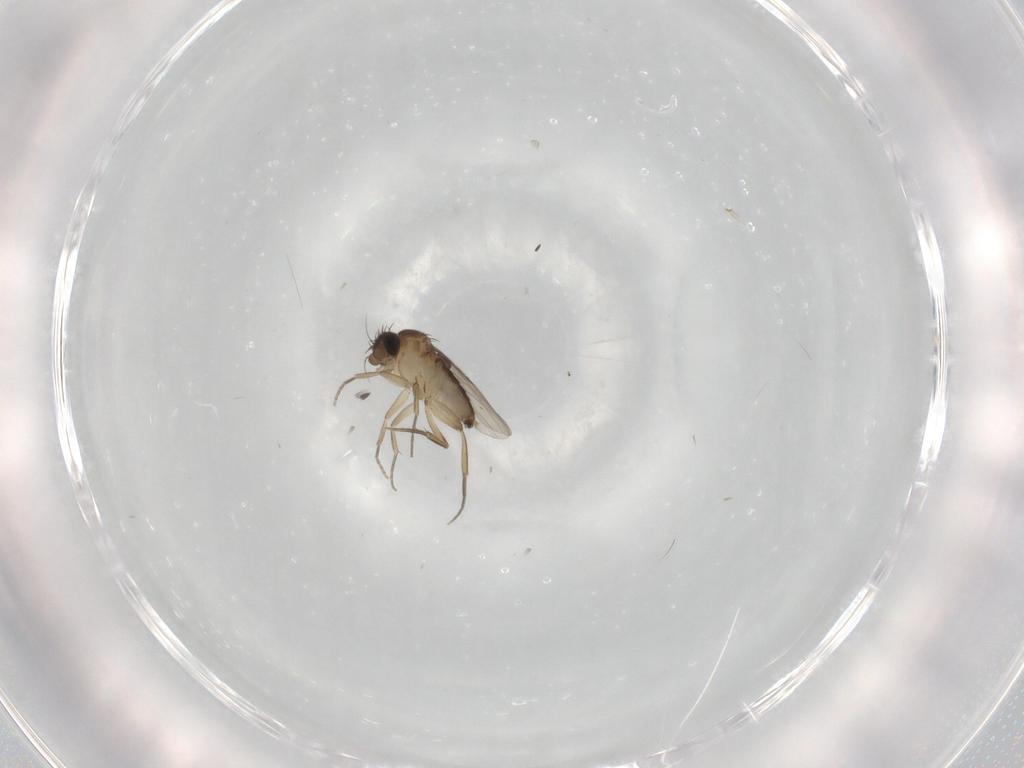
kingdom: Animalia
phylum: Arthropoda
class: Insecta
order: Diptera
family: Phoridae
